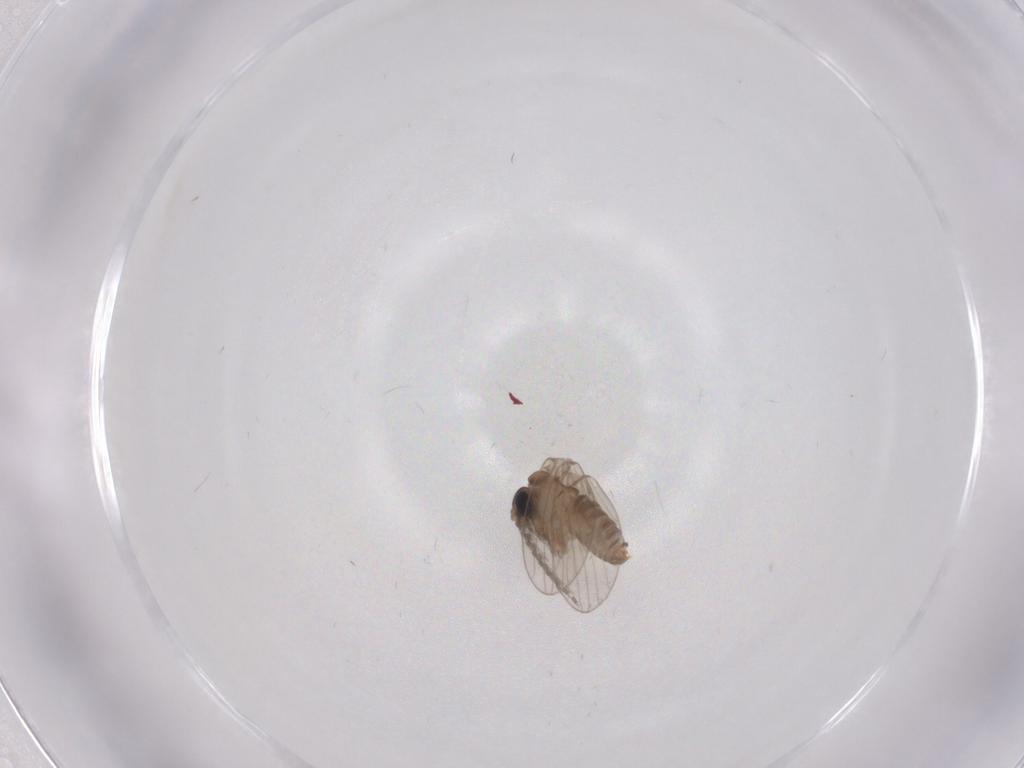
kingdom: Animalia
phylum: Arthropoda
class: Insecta
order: Diptera
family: Psychodidae
